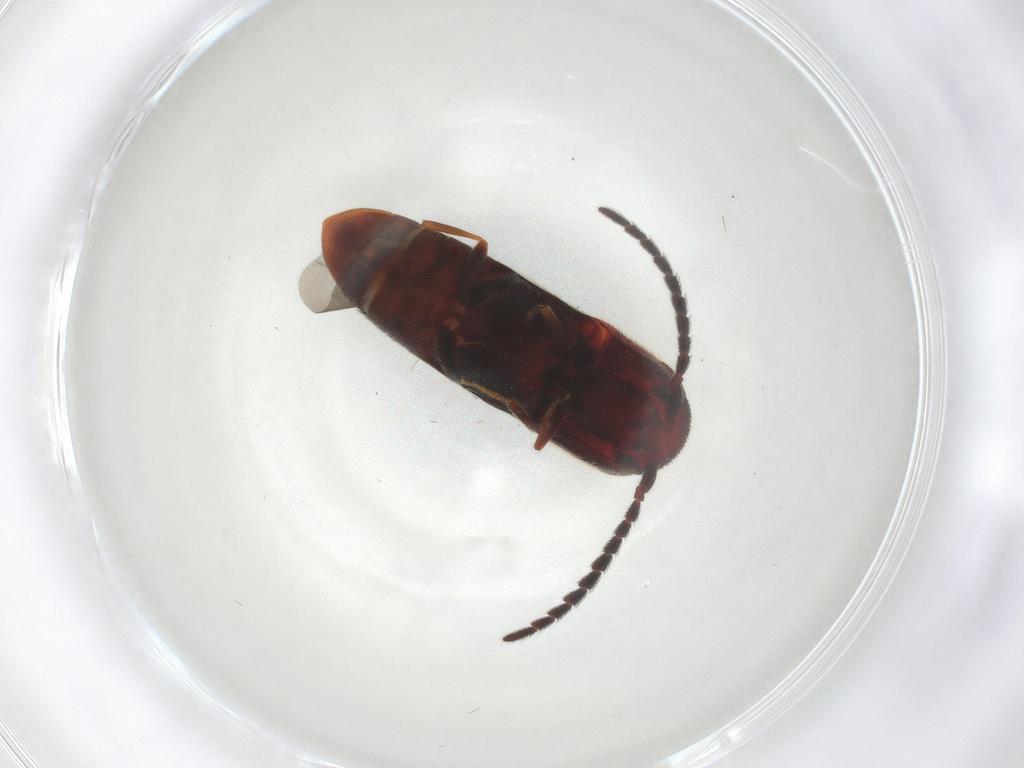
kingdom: Animalia
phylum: Arthropoda
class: Insecta
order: Coleoptera
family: Eucnemidae
